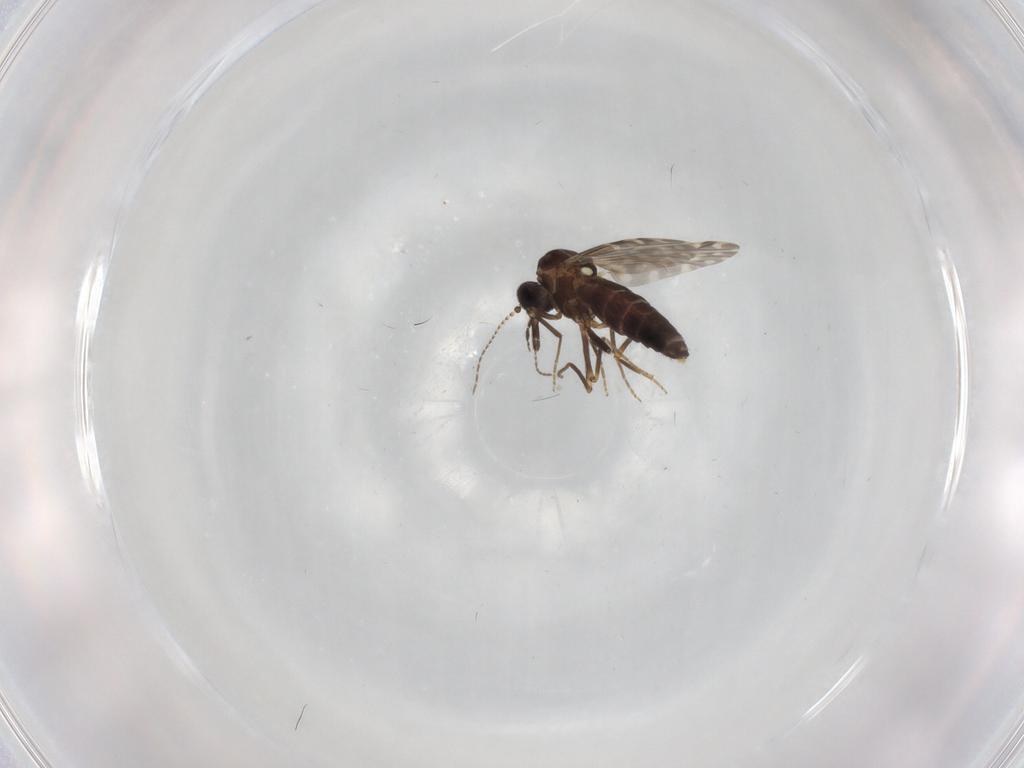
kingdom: Animalia
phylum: Arthropoda
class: Insecta
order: Diptera
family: Ceratopogonidae
